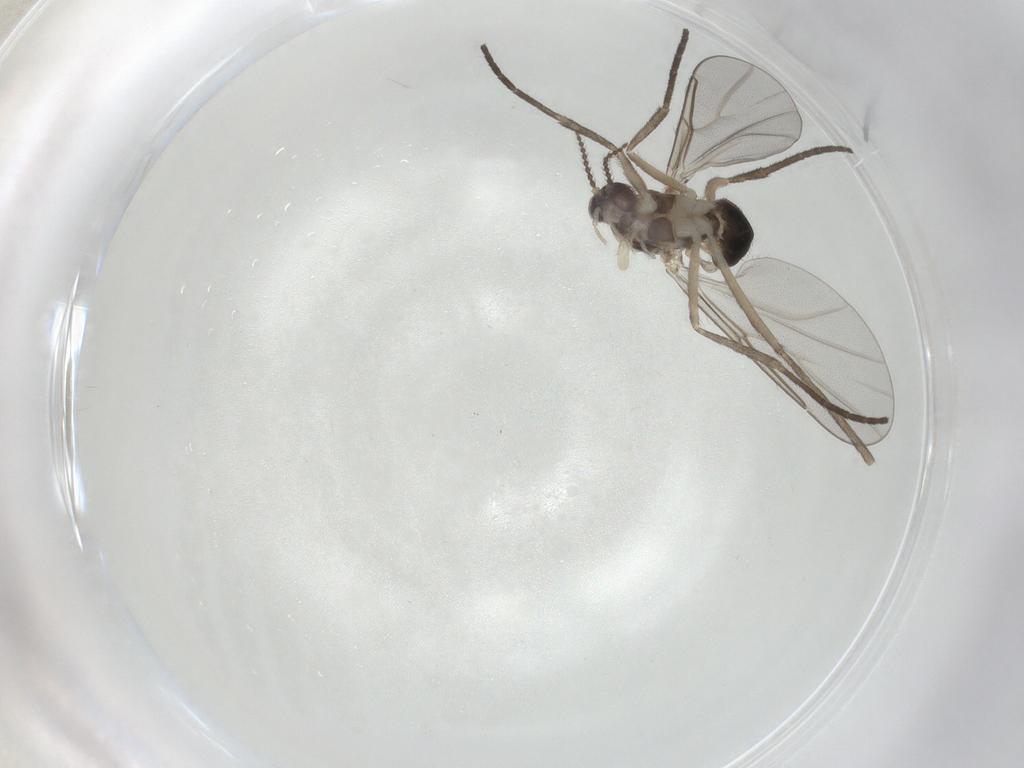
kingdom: Animalia
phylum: Arthropoda
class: Insecta
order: Diptera
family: Cecidomyiidae
